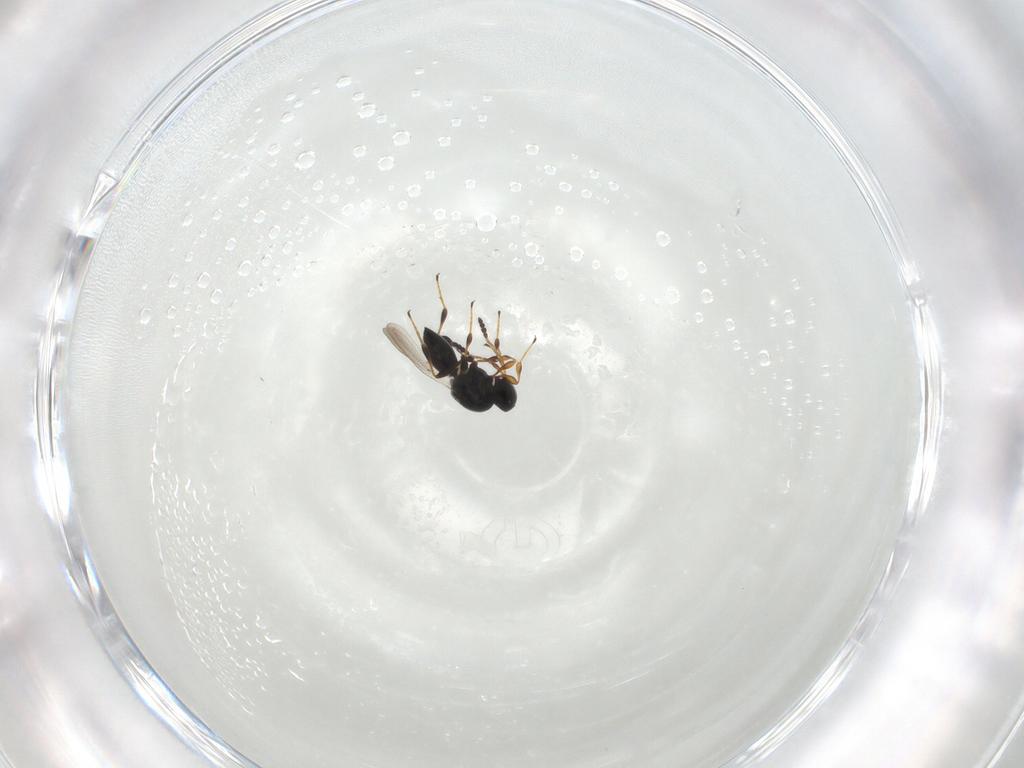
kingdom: Animalia
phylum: Arthropoda
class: Insecta
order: Hymenoptera
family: Platygastridae
